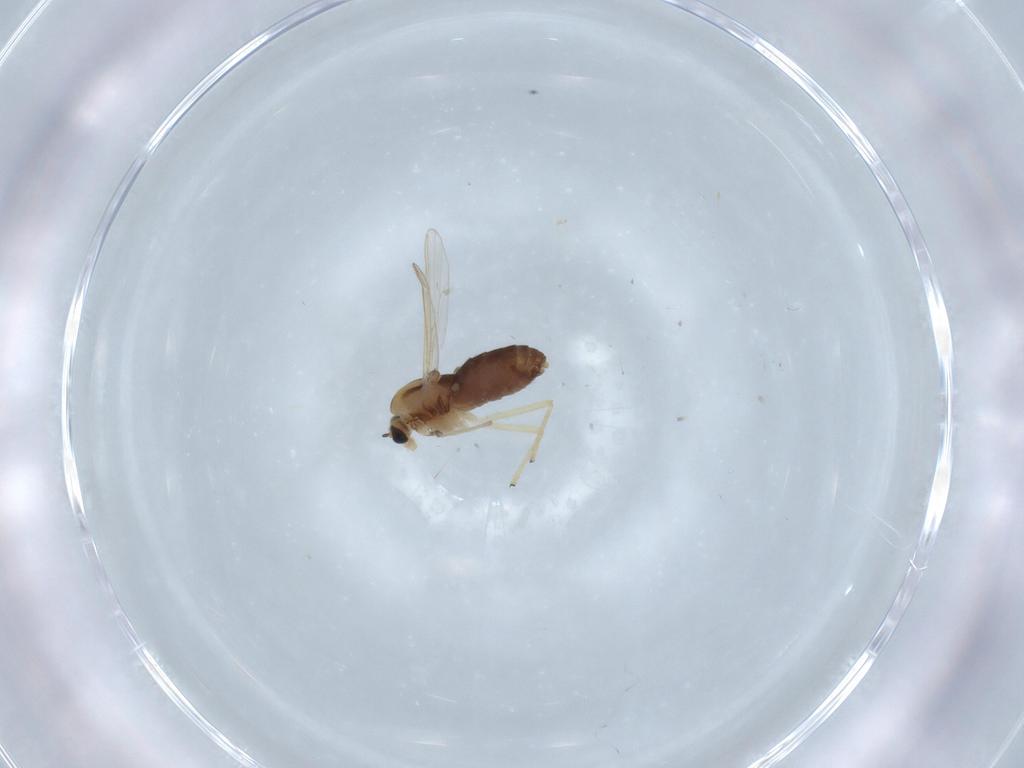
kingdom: Animalia
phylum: Arthropoda
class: Insecta
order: Diptera
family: Chironomidae
